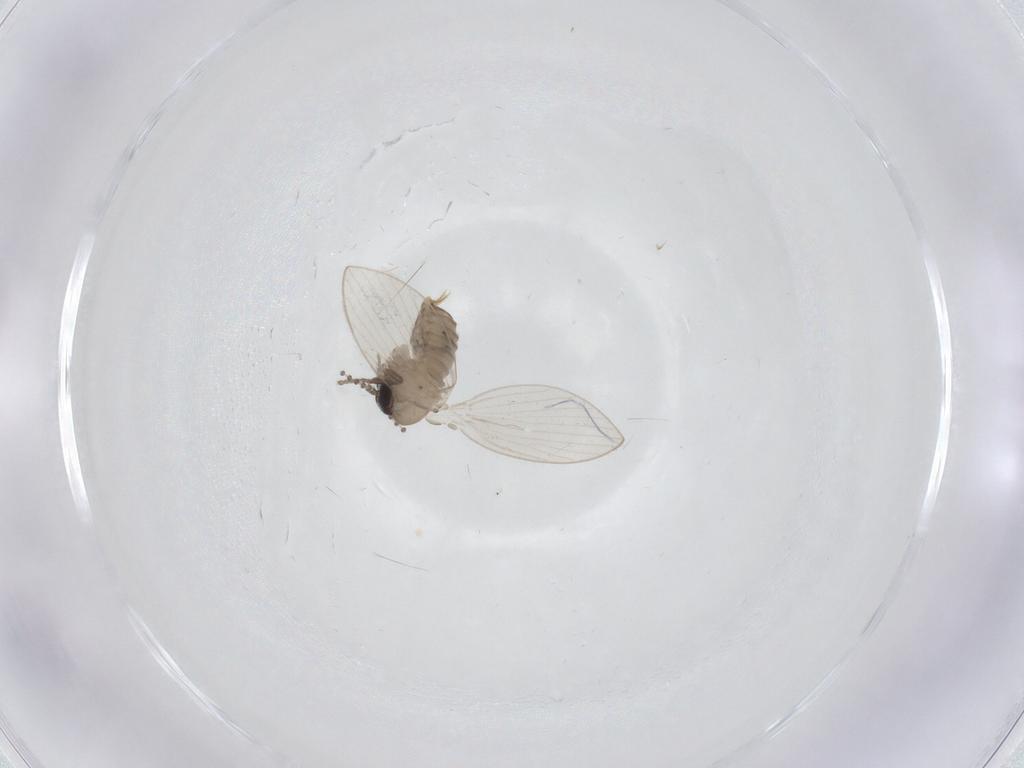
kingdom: Animalia
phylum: Arthropoda
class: Insecta
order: Diptera
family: Psychodidae
